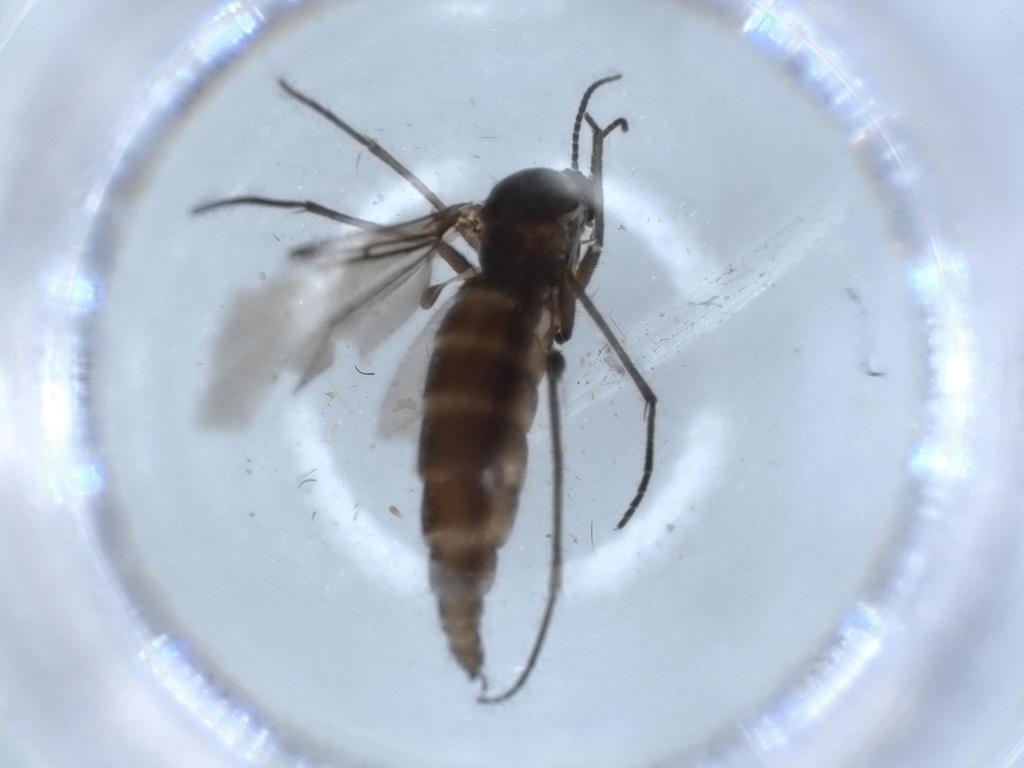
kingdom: Animalia
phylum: Arthropoda
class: Insecta
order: Diptera
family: Sciaridae
